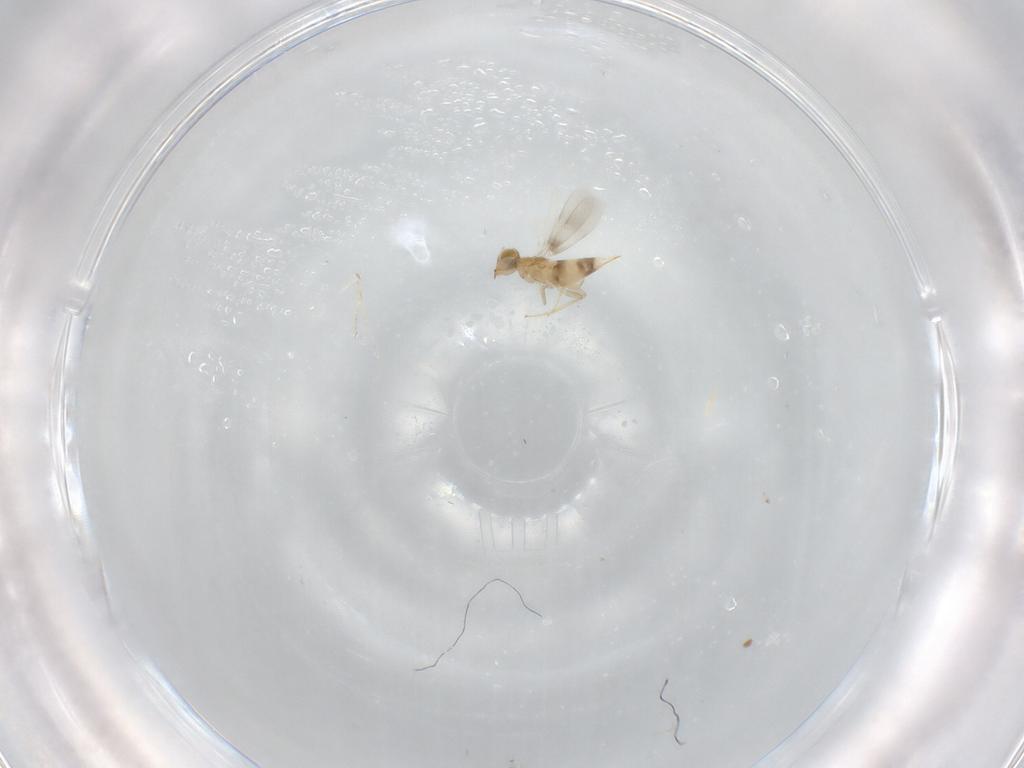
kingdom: Animalia
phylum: Arthropoda
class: Insecta
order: Hymenoptera
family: Aphelinidae
